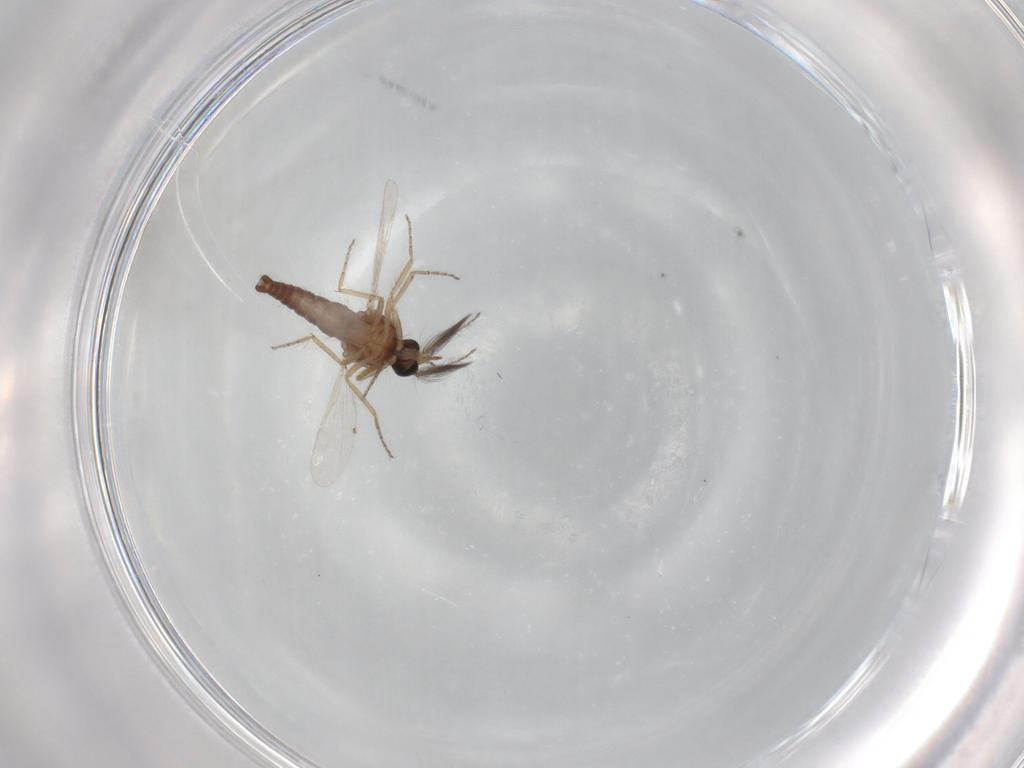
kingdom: Animalia
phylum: Arthropoda
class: Insecta
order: Diptera
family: Ceratopogonidae
